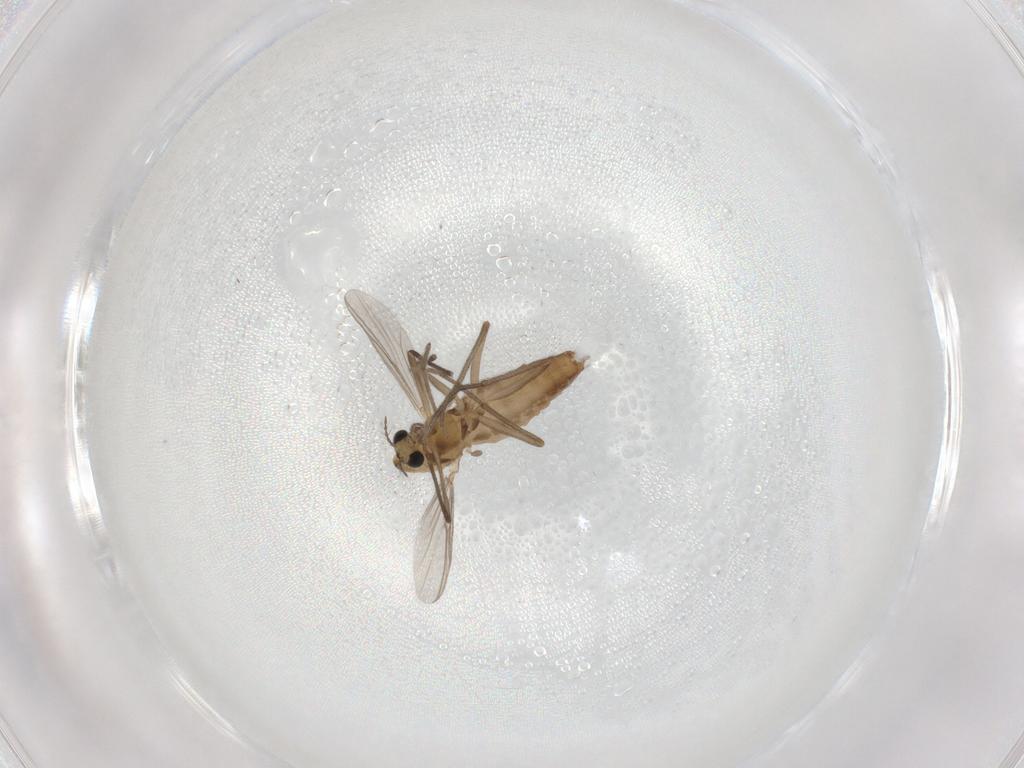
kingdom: Animalia
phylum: Arthropoda
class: Insecta
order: Diptera
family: Chironomidae
